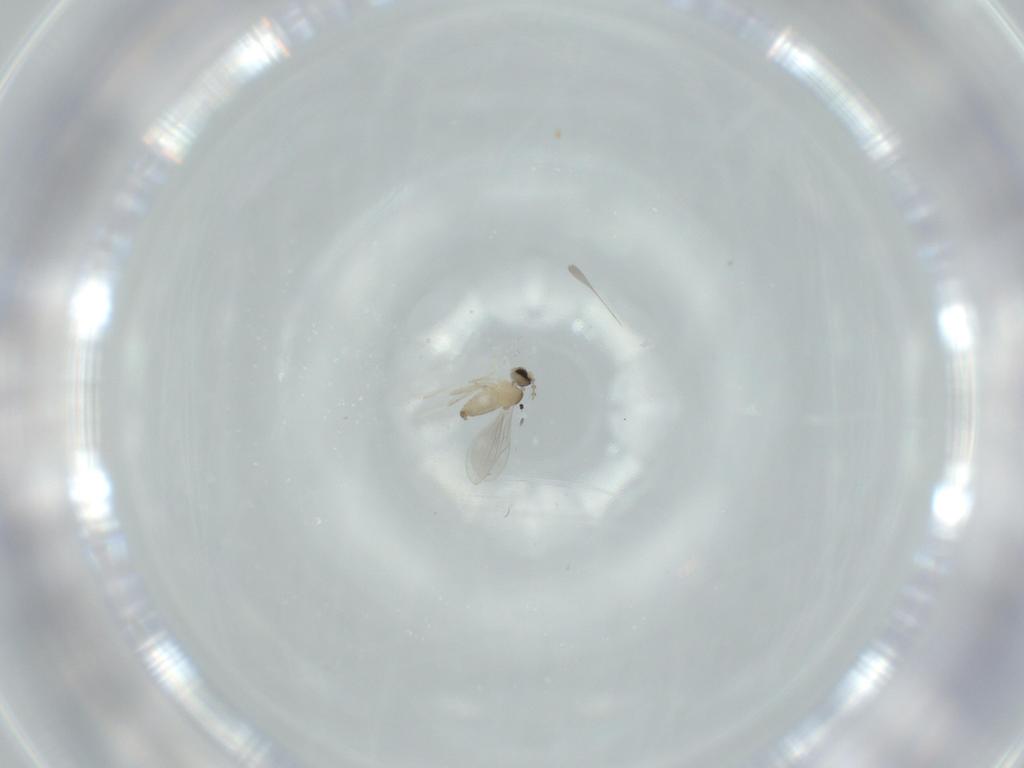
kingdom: Animalia
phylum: Arthropoda
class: Insecta
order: Diptera
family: Cecidomyiidae
